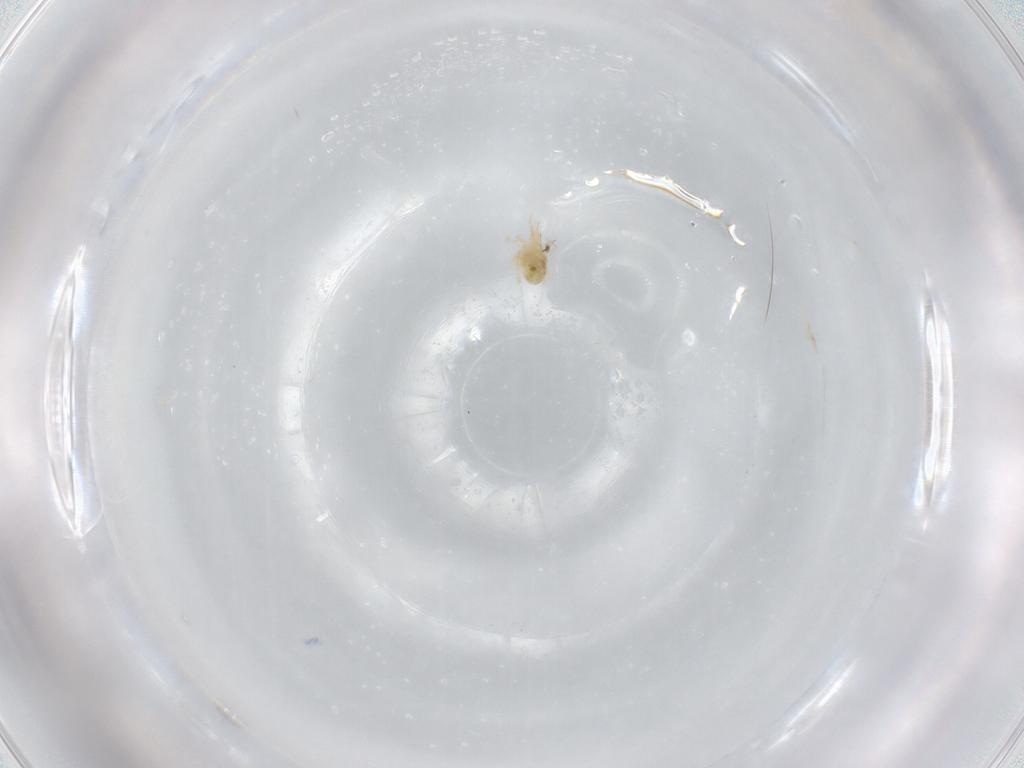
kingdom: Animalia
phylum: Arthropoda
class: Arachnida
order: Trombidiformes
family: Cunaxidae
